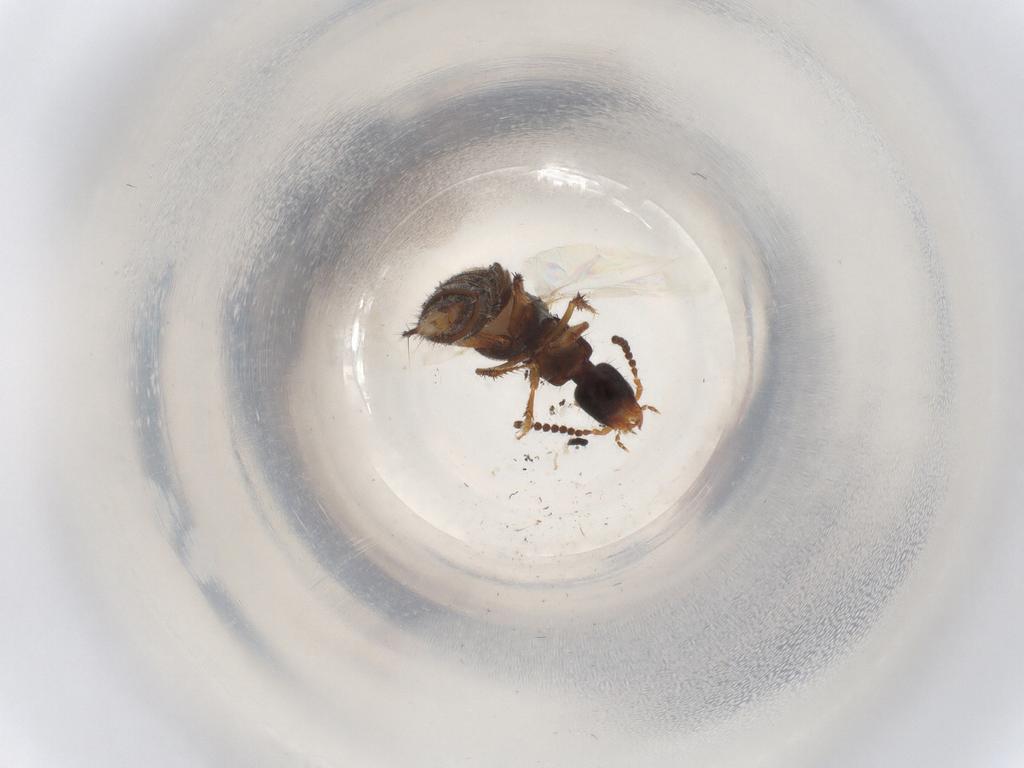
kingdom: Animalia
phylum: Arthropoda
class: Insecta
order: Coleoptera
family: Staphylinidae
